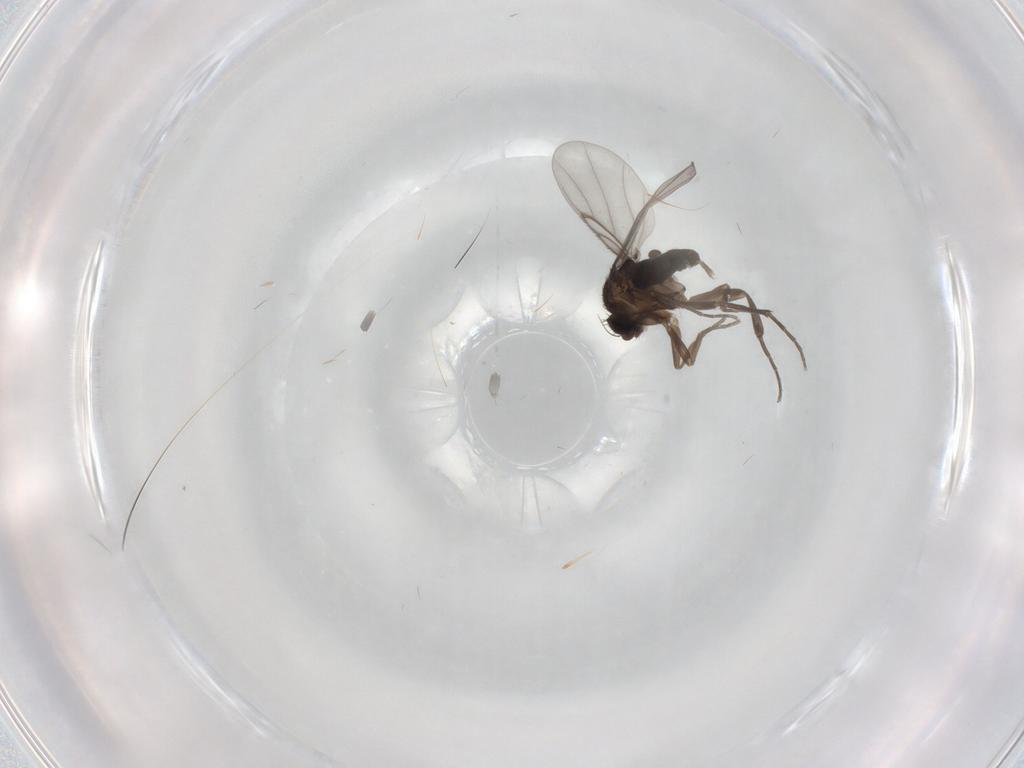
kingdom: Animalia
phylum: Arthropoda
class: Insecta
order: Diptera
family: Phoridae
